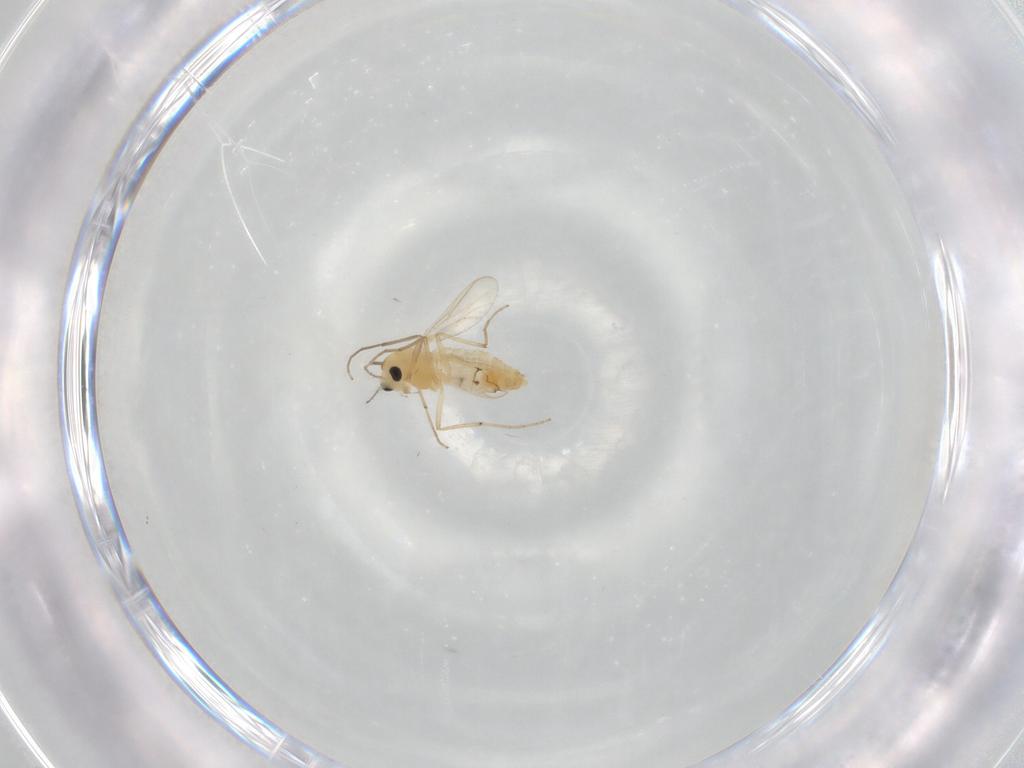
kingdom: Animalia
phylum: Arthropoda
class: Insecta
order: Diptera
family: Chironomidae
